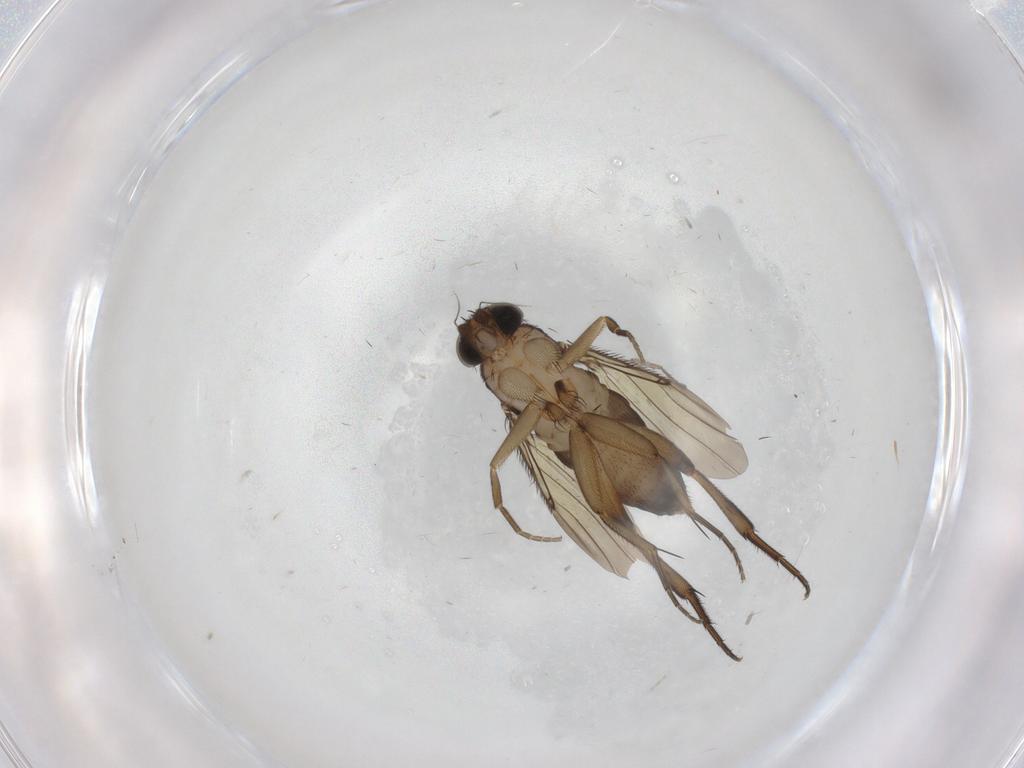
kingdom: Animalia
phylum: Arthropoda
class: Insecta
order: Diptera
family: Phoridae
